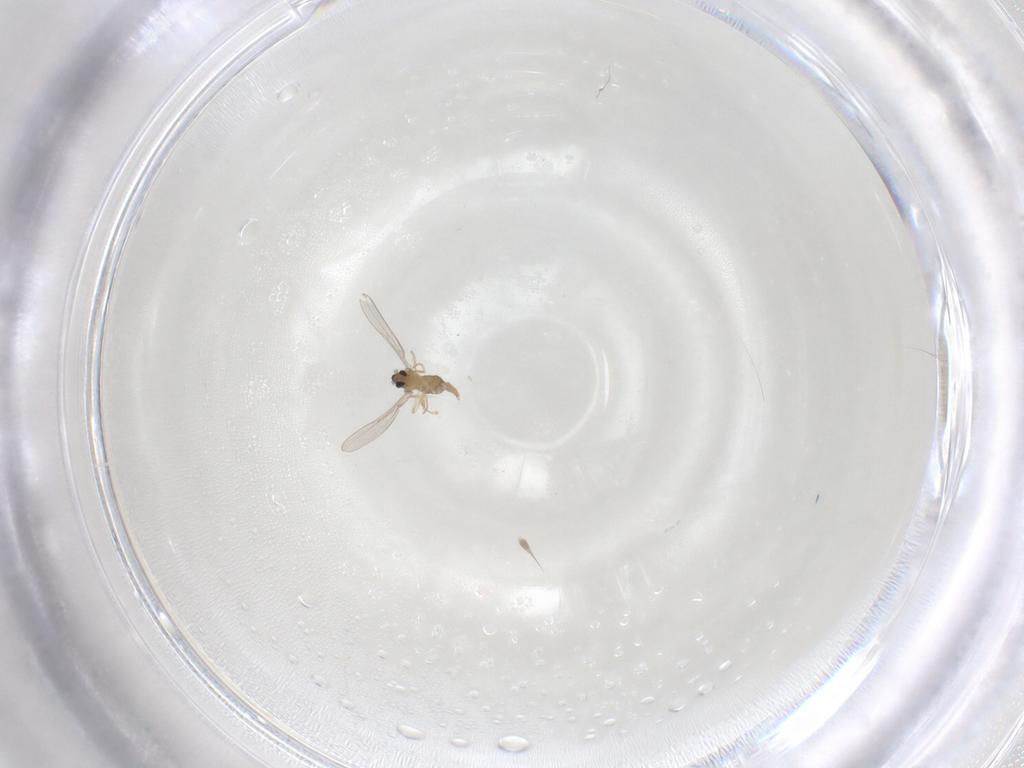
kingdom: Animalia
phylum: Arthropoda
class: Insecta
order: Diptera
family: Cecidomyiidae
